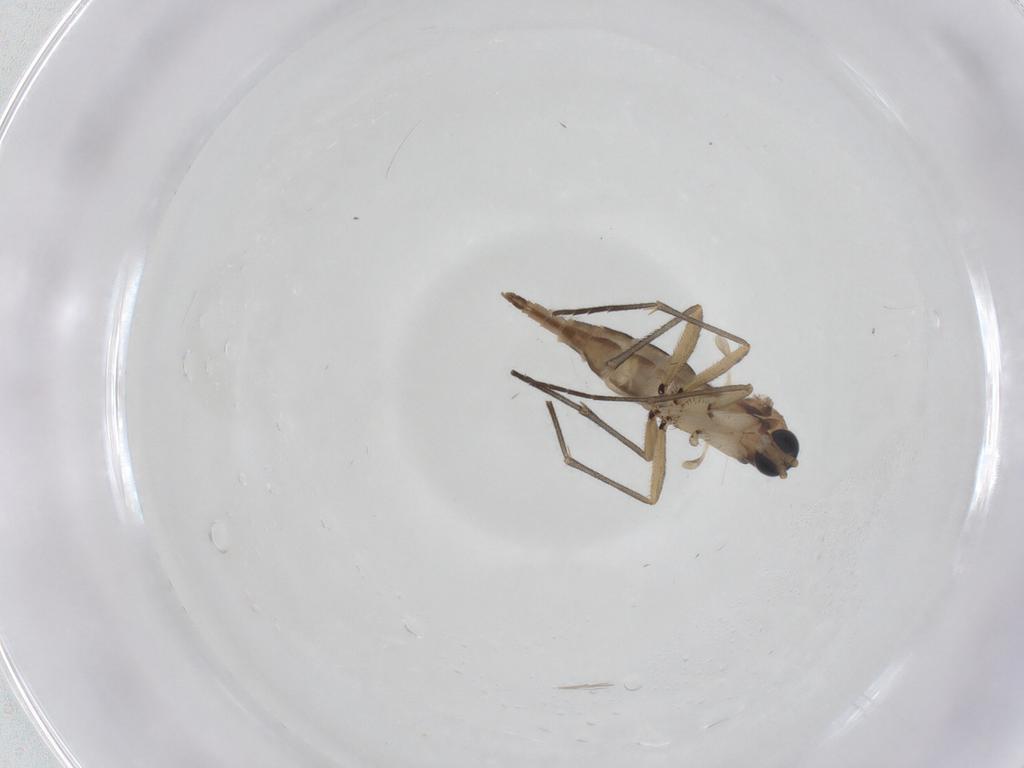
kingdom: Animalia
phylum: Arthropoda
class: Insecta
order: Diptera
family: Sciaridae
